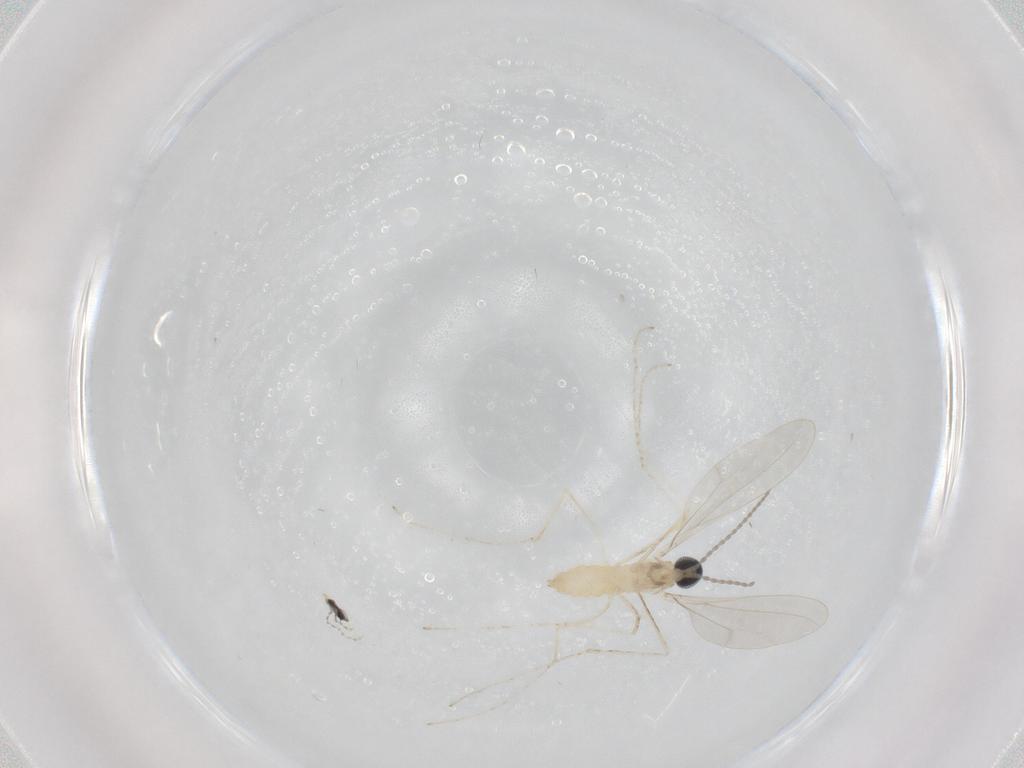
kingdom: Animalia
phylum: Arthropoda
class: Insecta
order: Diptera
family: Cecidomyiidae
